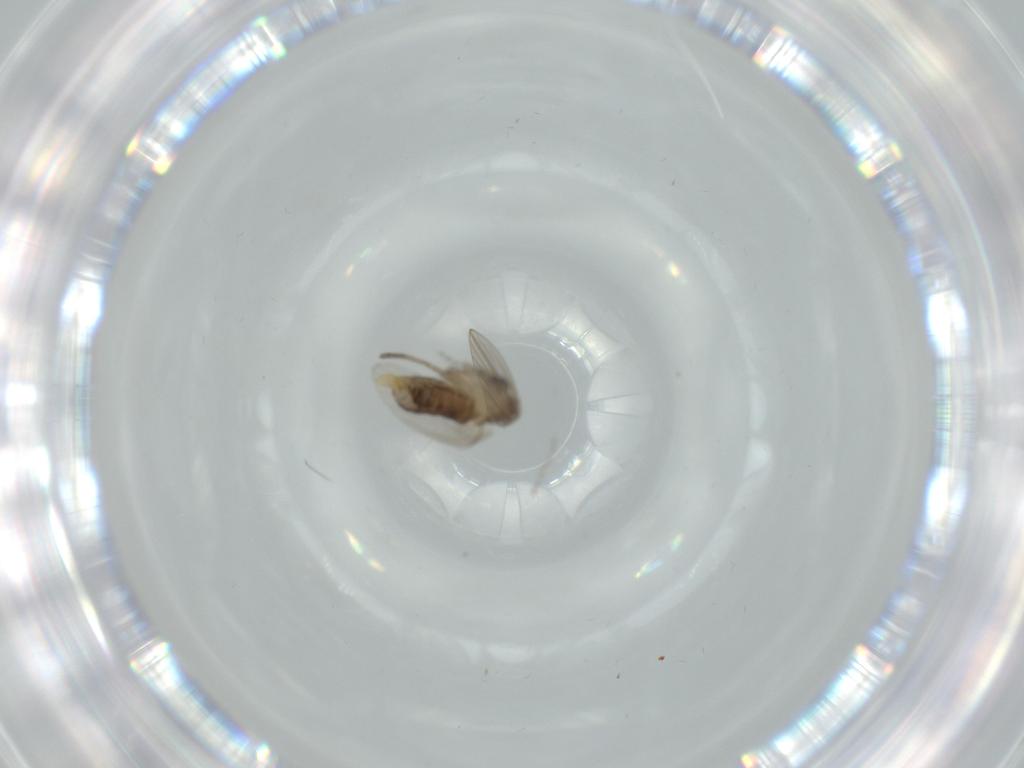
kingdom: Animalia
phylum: Arthropoda
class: Insecta
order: Diptera
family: Psychodidae
